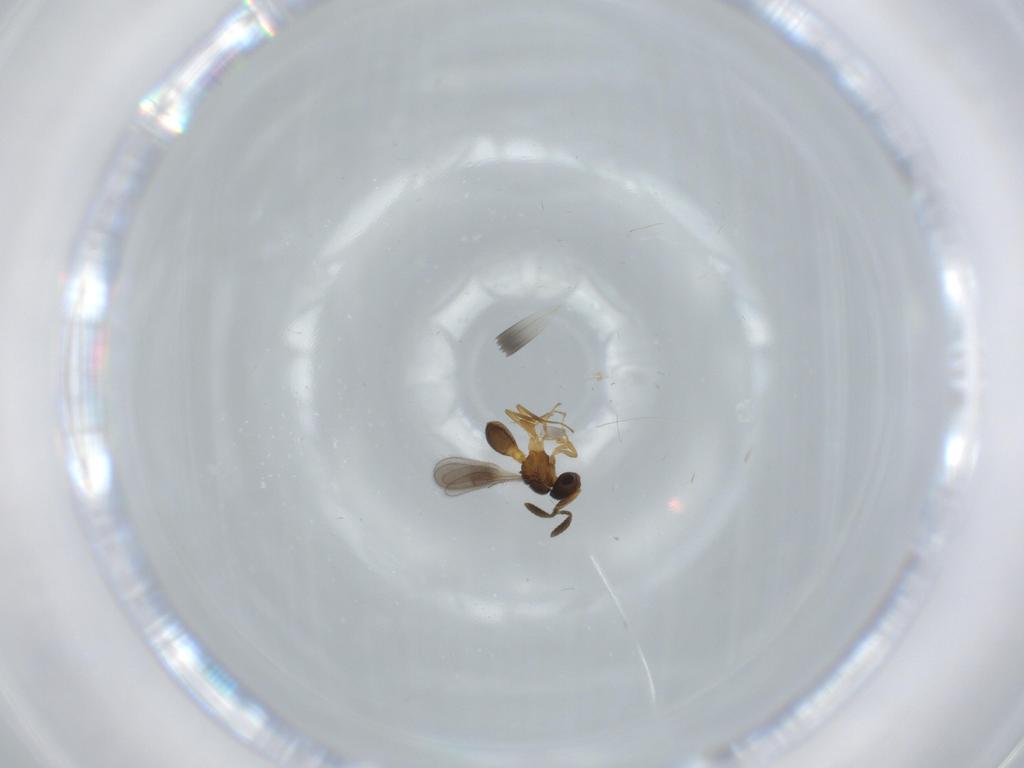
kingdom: Animalia
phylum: Arthropoda
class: Insecta
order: Hymenoptera
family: Scelionidae
